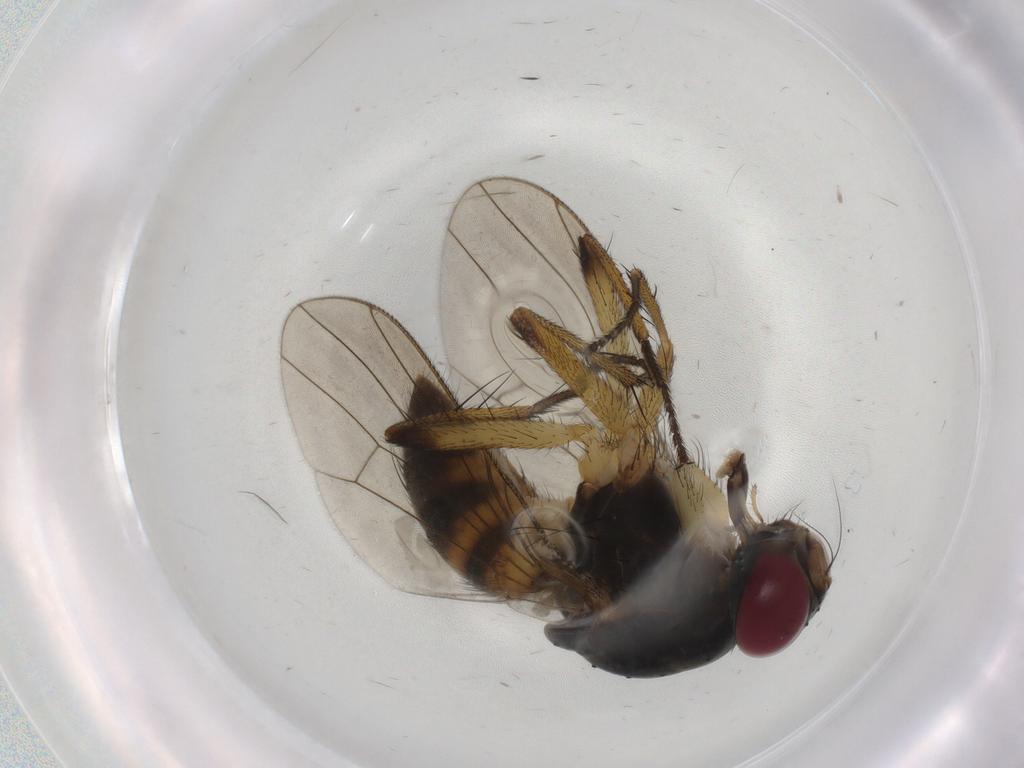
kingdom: Animalia
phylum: Arthropoda
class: Insecta
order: Diptera
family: Muscidae
